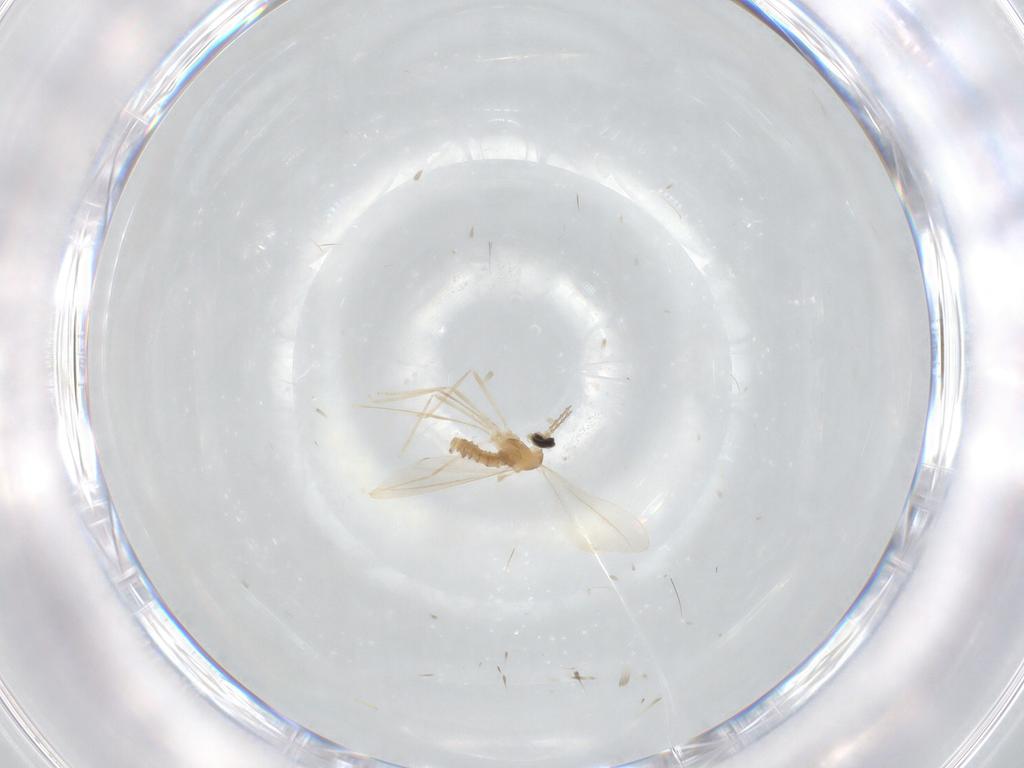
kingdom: Animalia
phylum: Arthropoda
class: Insecta
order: Diptera
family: Cecidomyiidae
